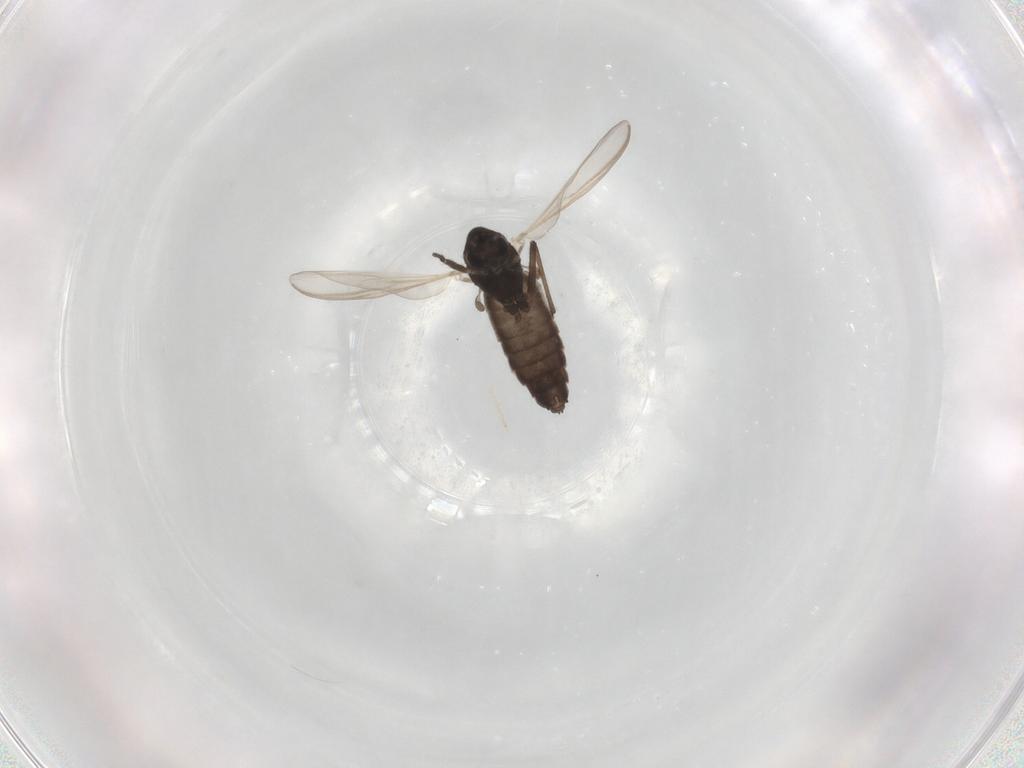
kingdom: Animalia
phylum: Arthropoda
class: Insecta
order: Diptera
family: Chironomidae
